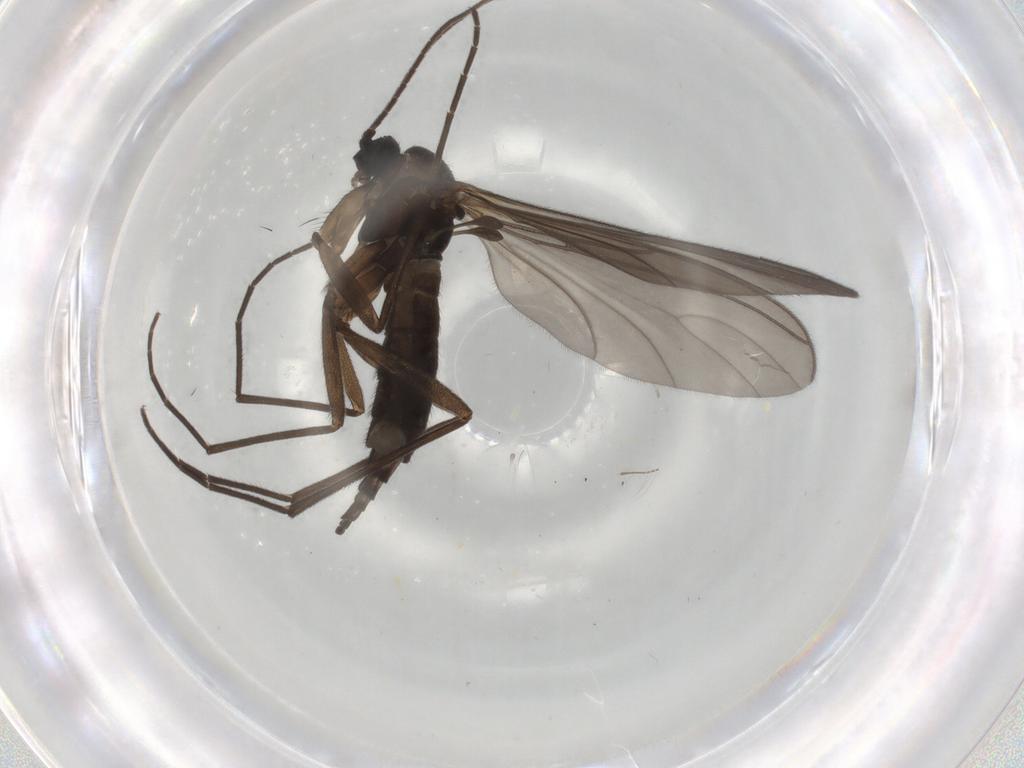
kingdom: Animalia
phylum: Arthropoda
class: Insecta
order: Diptera
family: Sciaridae
